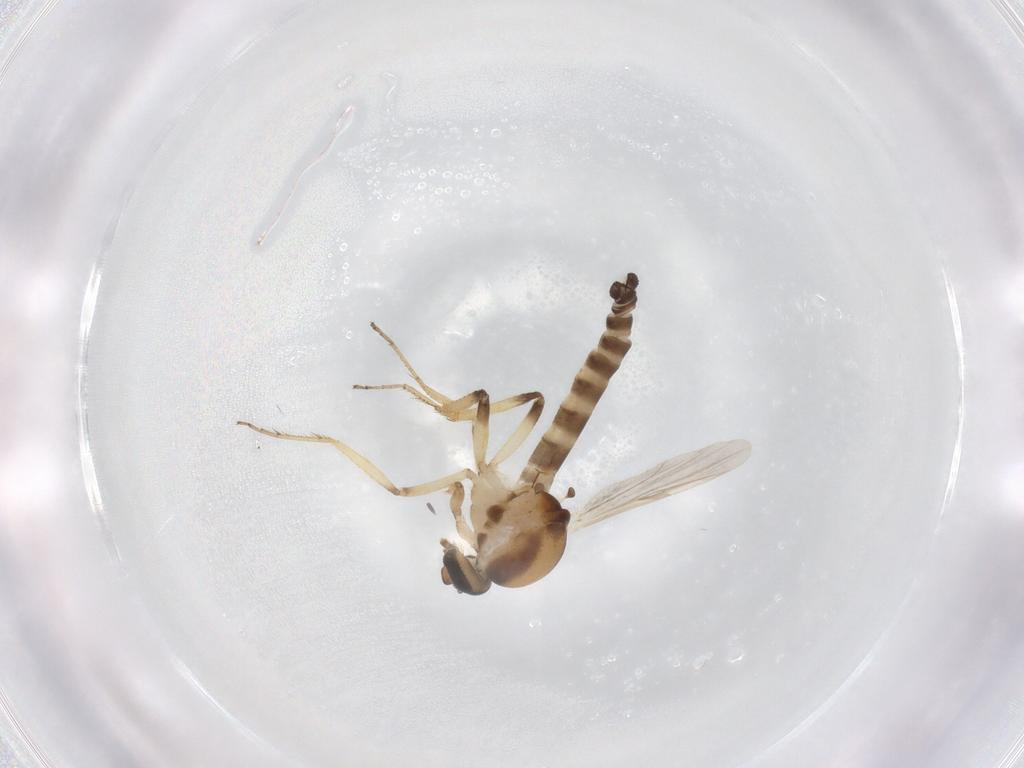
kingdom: Animalia
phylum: Arthropoda
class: Insecta
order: Diptera
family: Ceratopogonidae
